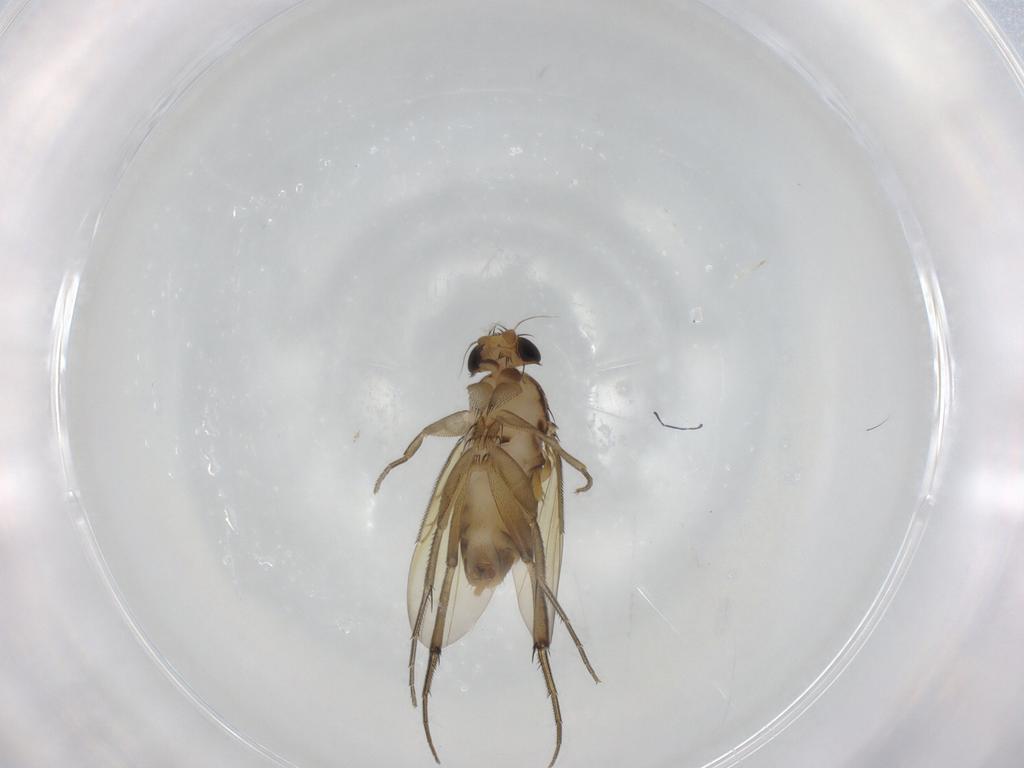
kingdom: Animalia
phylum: Arthropoda
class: Insecta
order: Diptera
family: Phoridae
